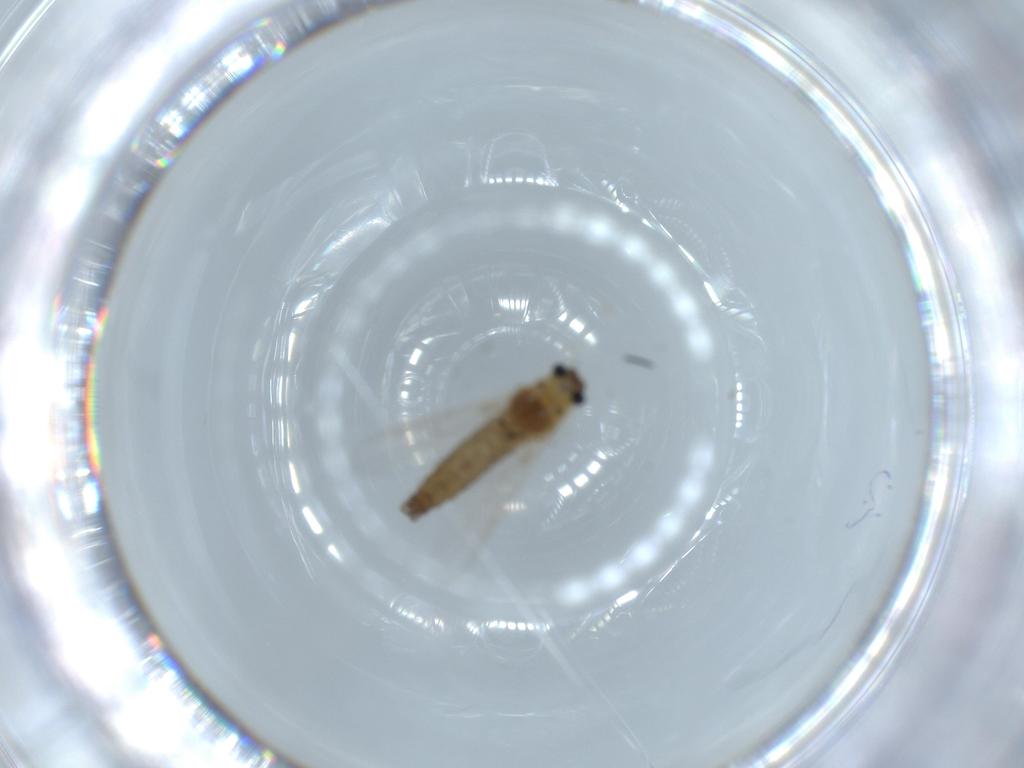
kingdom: Animalia
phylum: Arthropoda
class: Insecta
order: Diptera
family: Chironomidae
